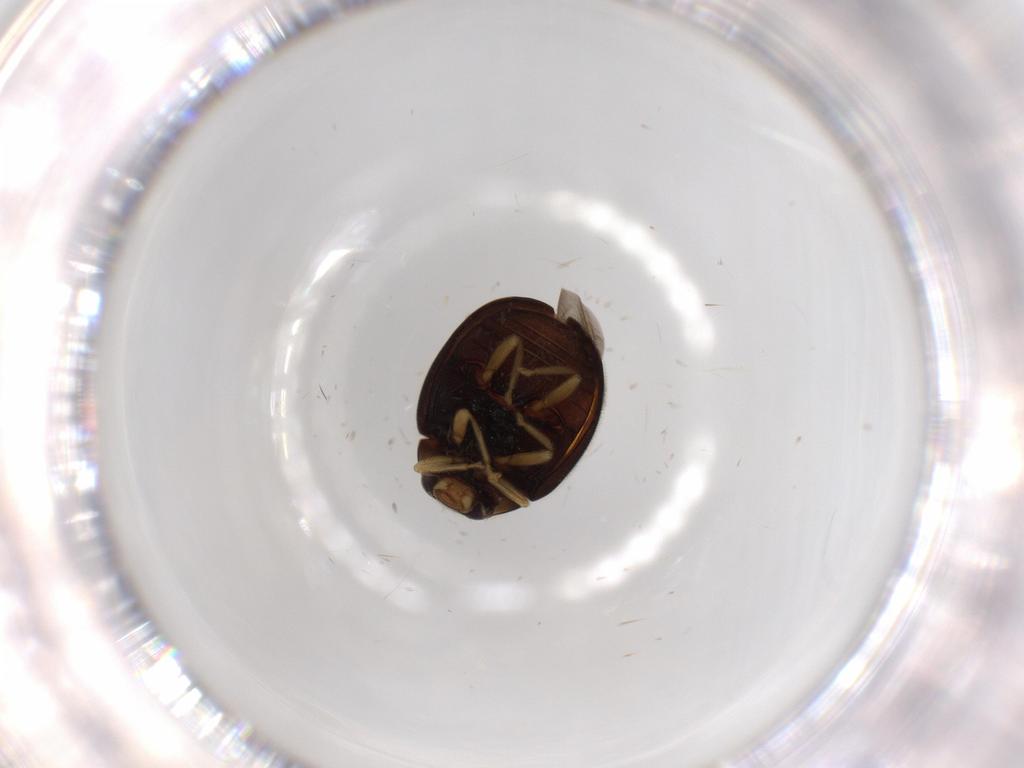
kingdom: Animalia
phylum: Arthropoda
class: Insecta
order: Coleoptera
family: Coccinellidae
